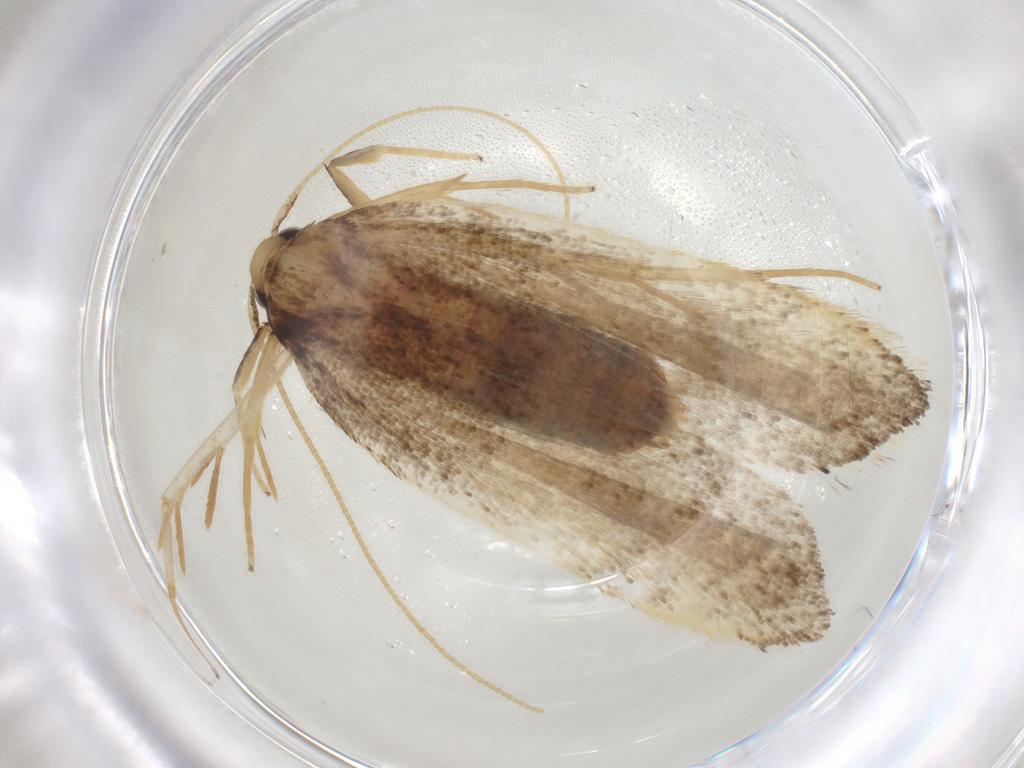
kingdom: Animalia
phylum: Arthropoda
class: Insecta
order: Lepidoptera
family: Lecithoceridae
